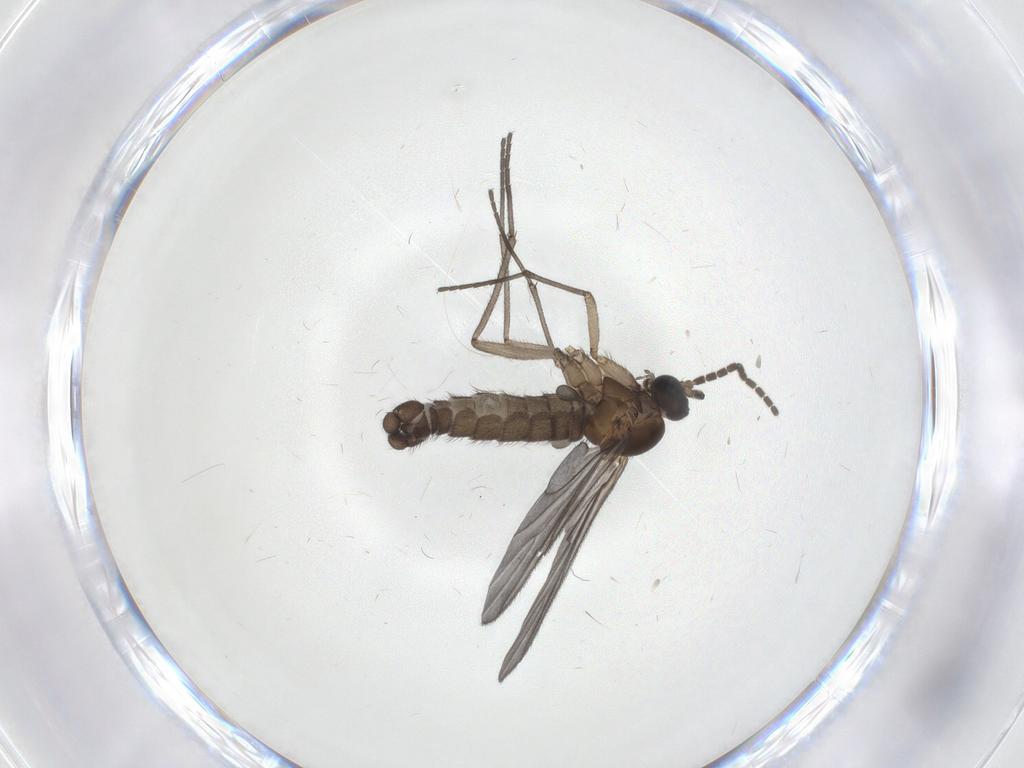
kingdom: Animalia
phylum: Arthropoda
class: Insecta
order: Diptera
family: Sciaridae
